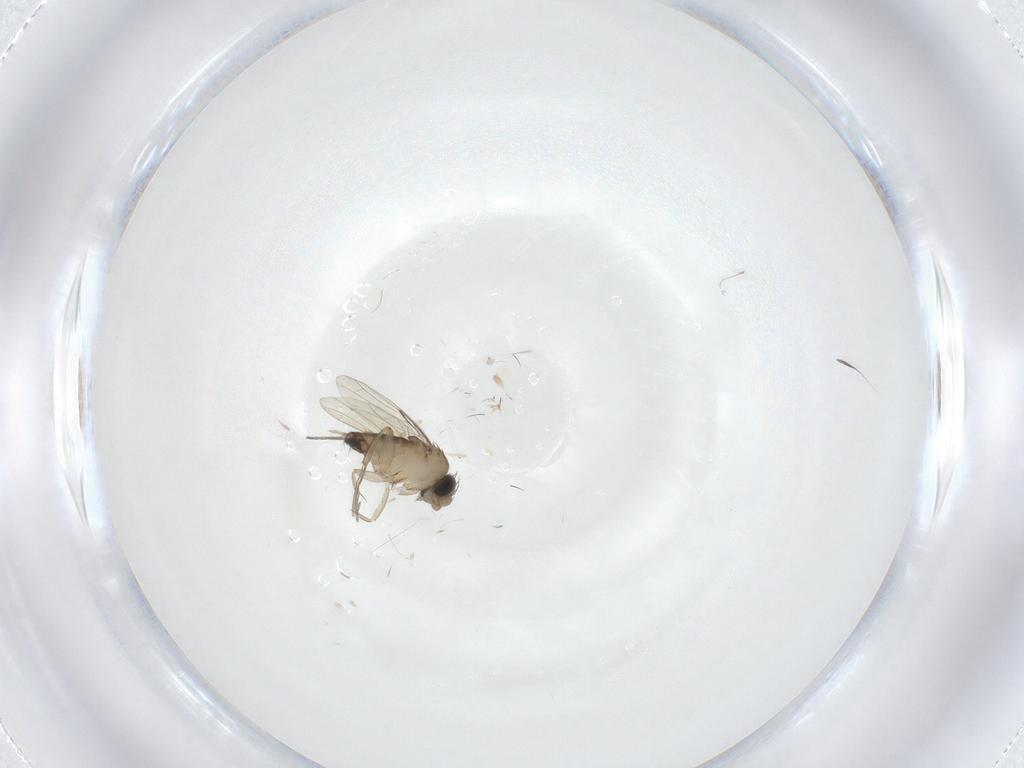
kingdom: Animalia
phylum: Arthropoda
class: Insecta
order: Diptera
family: Phoridae
